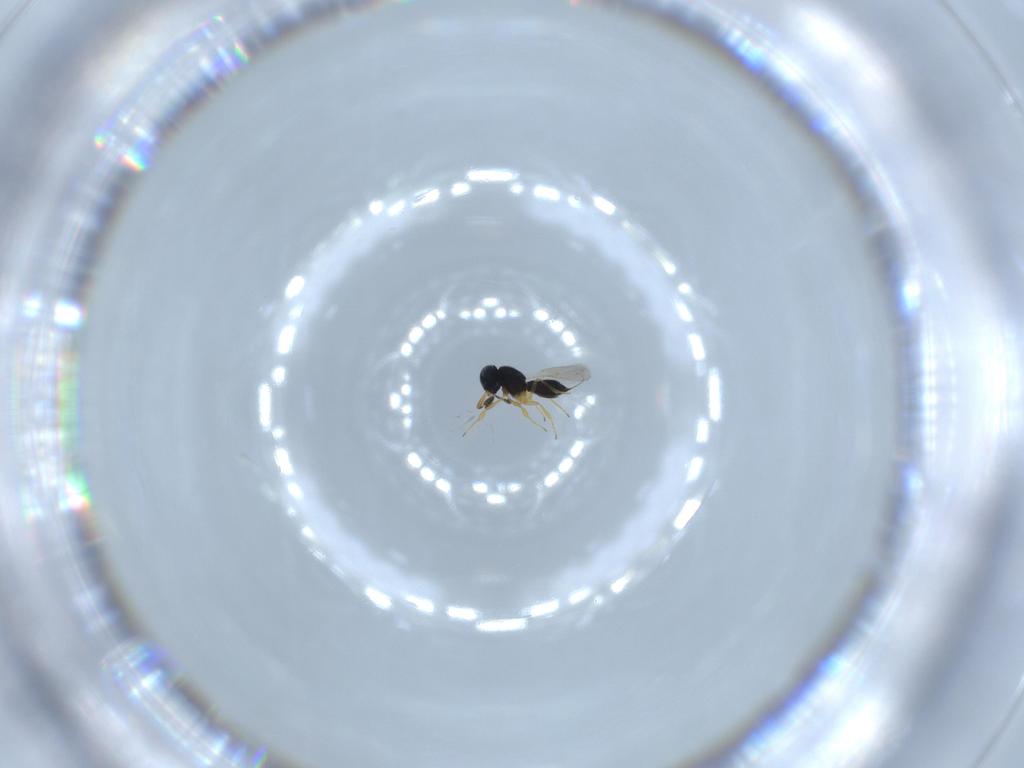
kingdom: Animalia
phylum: Arthropoda
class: Insecta
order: Hymenoptera
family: Scelionidae
